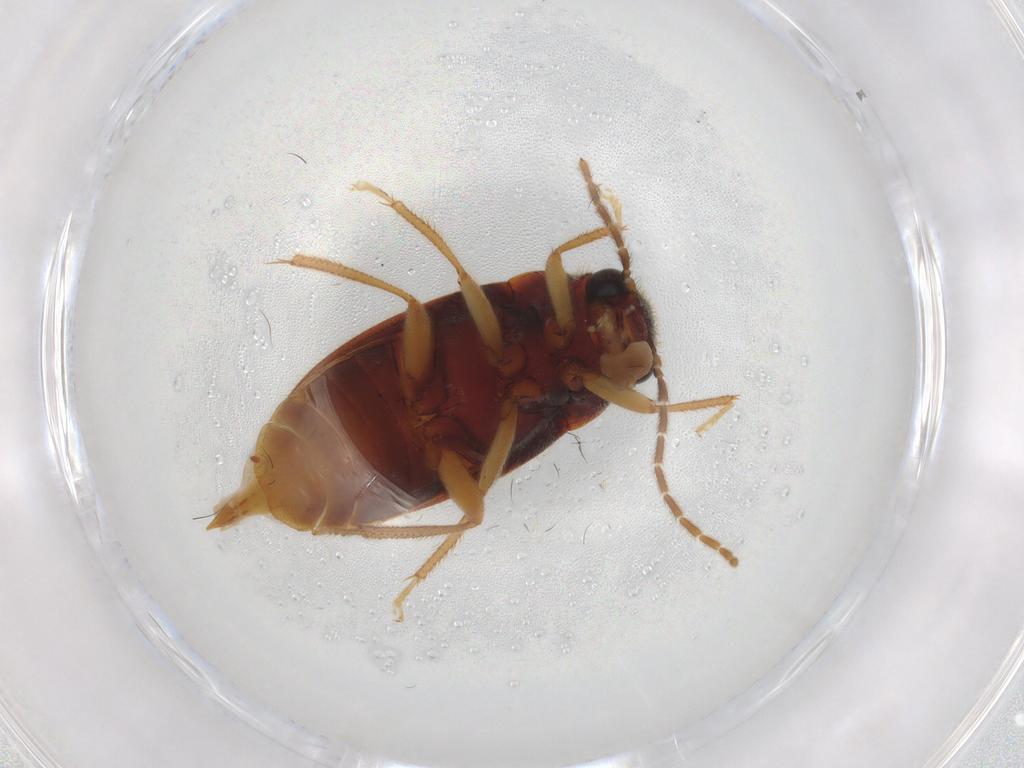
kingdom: Animalia
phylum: Arthropoda
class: Insecta
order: Coleoptera
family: Ptilodactylidae
